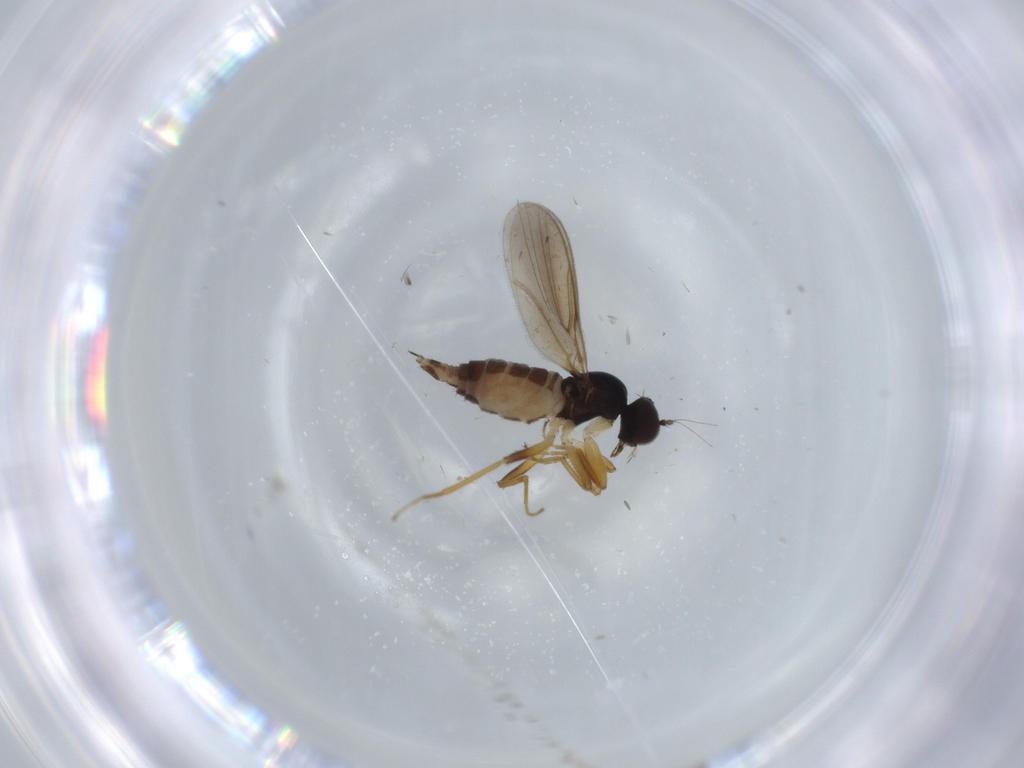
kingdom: Animalia
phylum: Arthropoda
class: Insecta
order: Diptera
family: Hybotidae
